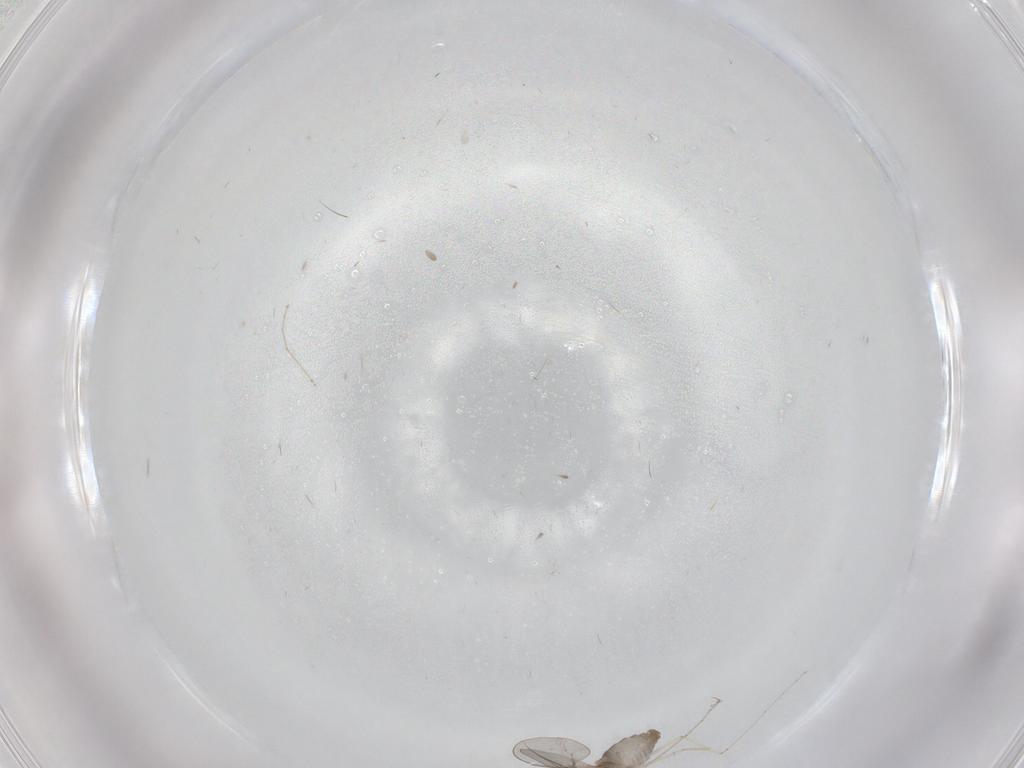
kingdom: Animalia
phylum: Arthropoda
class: Insecta
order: Diptera
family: Cecidomyiidae
